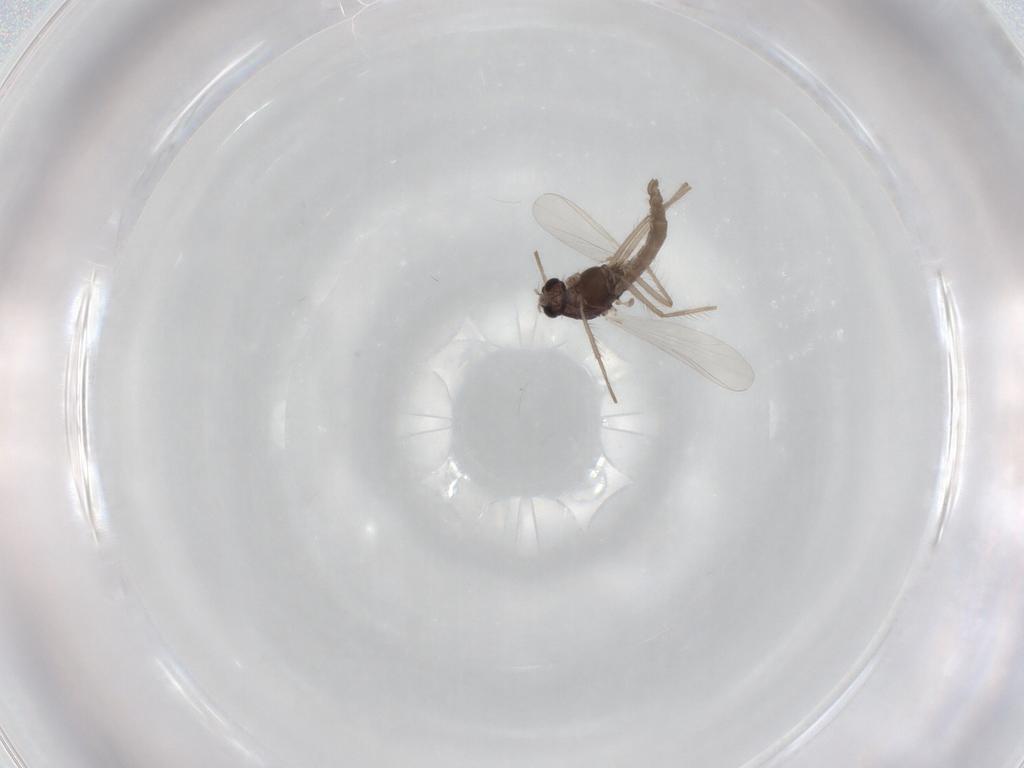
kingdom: Animalia
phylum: Arthropoda
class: Insecta
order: Diptera
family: Chironomidae
